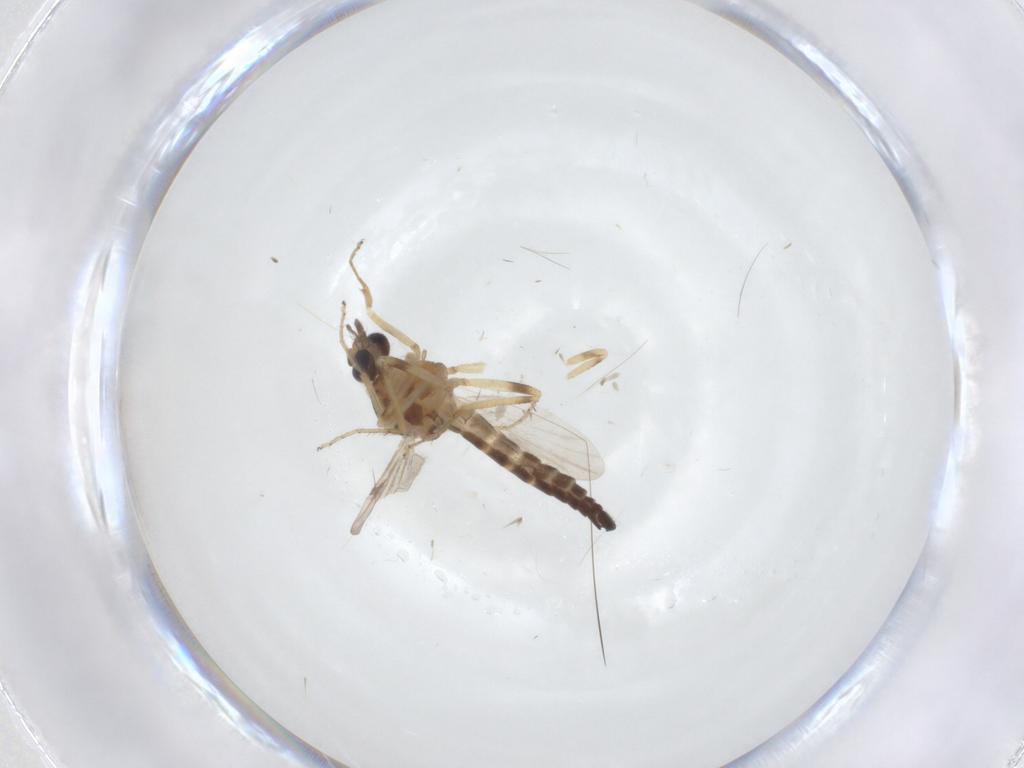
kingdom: Animalia
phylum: Arthropoda
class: Insecta
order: Diptera
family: Ceratopogonidae
